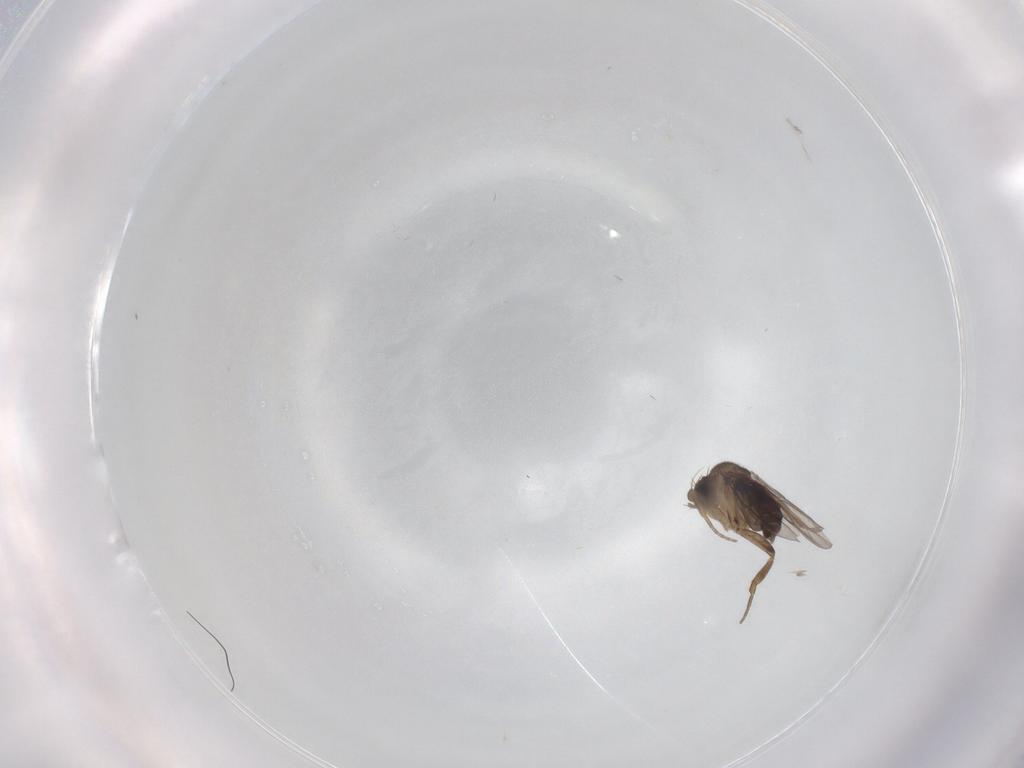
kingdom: Animalia
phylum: Arthropoda
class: Insecta
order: Diptera
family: Phoridae
